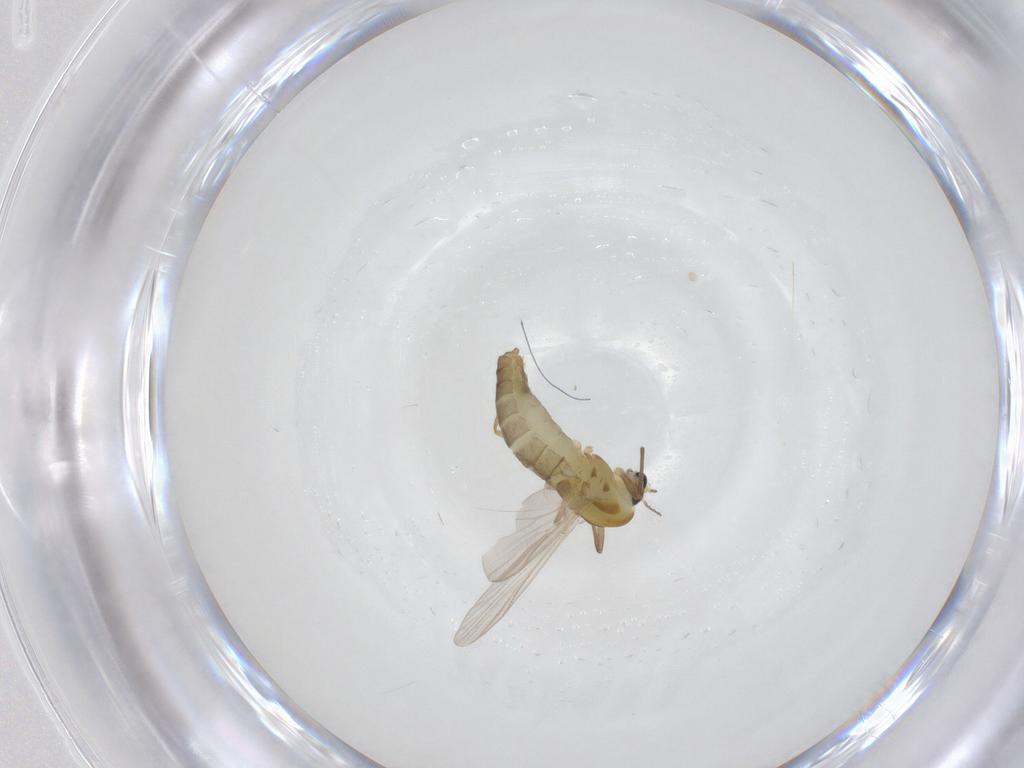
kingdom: Animalia
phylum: Arthropoda
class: Insecta
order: Diptera
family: Chironomidae
